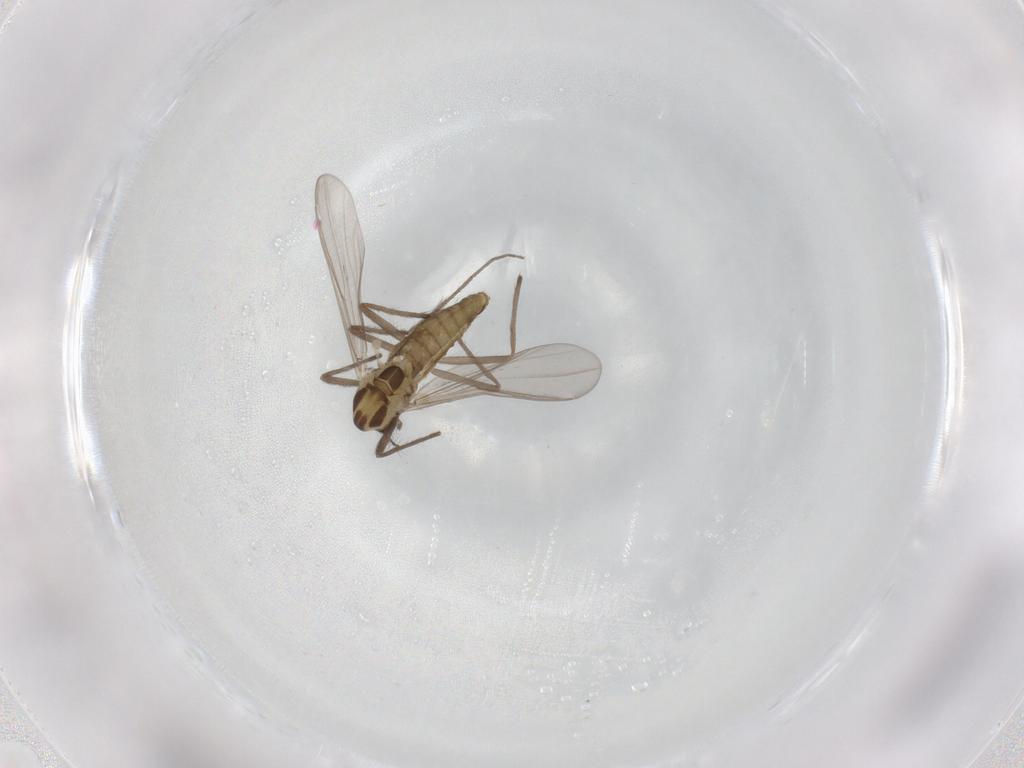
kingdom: Animalia
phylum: Arthropoda
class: Insecta
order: Diptera
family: Chironomidae
